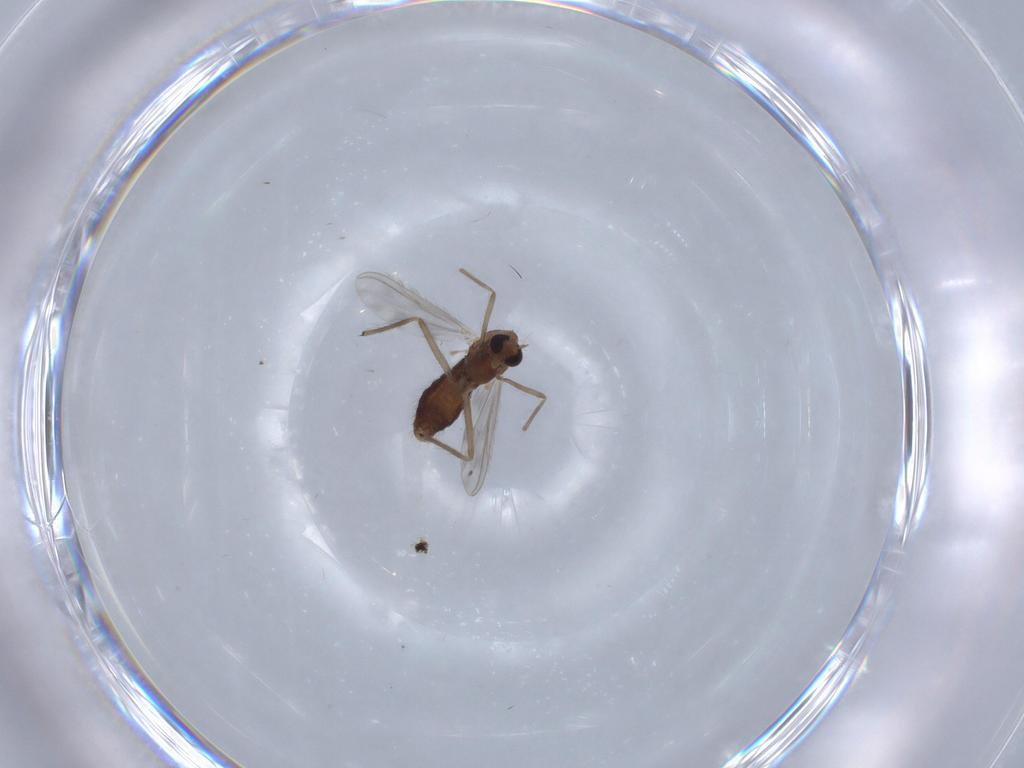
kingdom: Animalia
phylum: Arthropoda
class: Insecta
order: Diptera
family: Chironomidae
